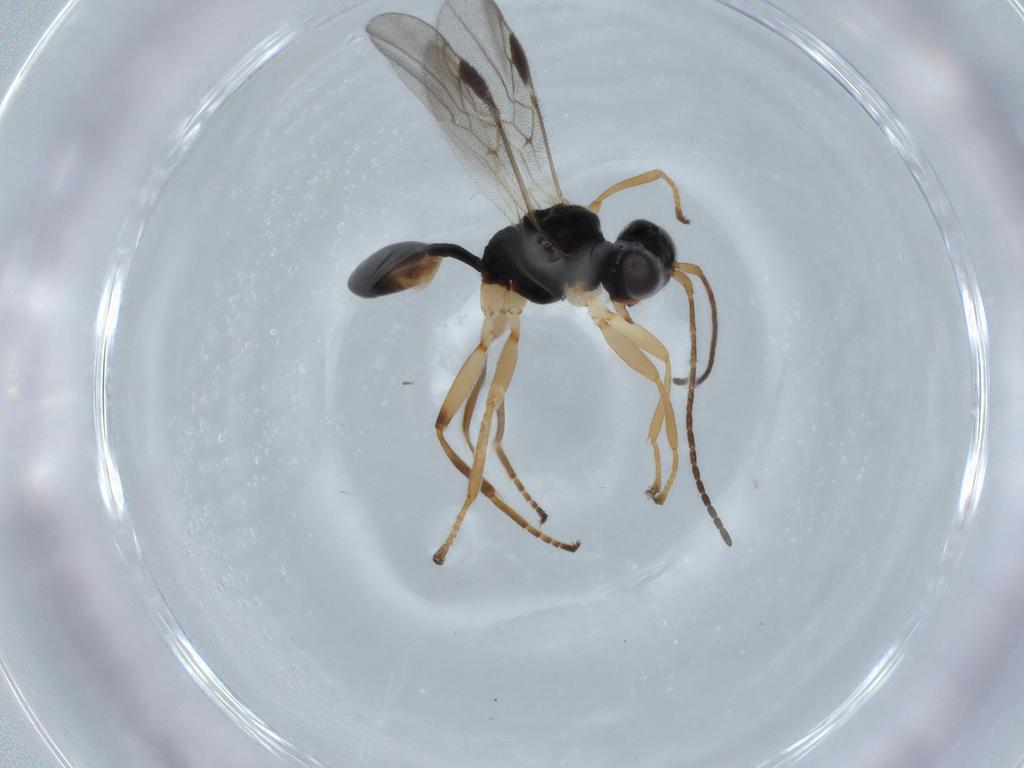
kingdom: Animalia
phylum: Arthropoda
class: Insecta
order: Hymenoptera
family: Braconidae
